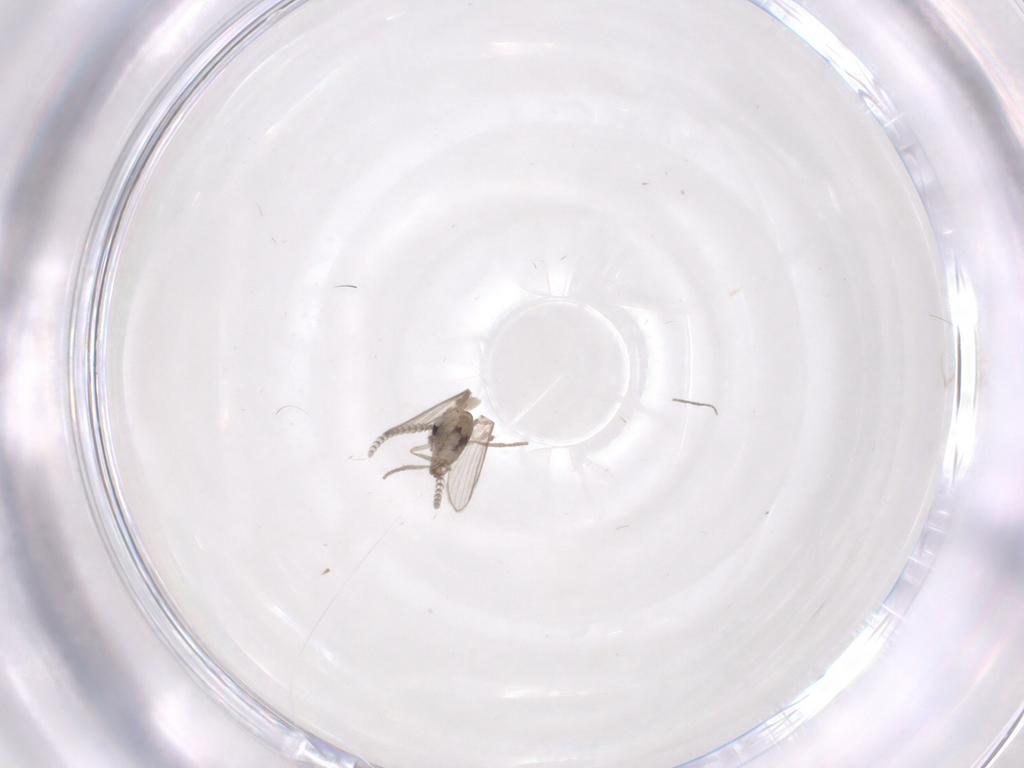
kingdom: Animalia
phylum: Arthropoda
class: Insecta
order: Diptera
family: Psychodidae
